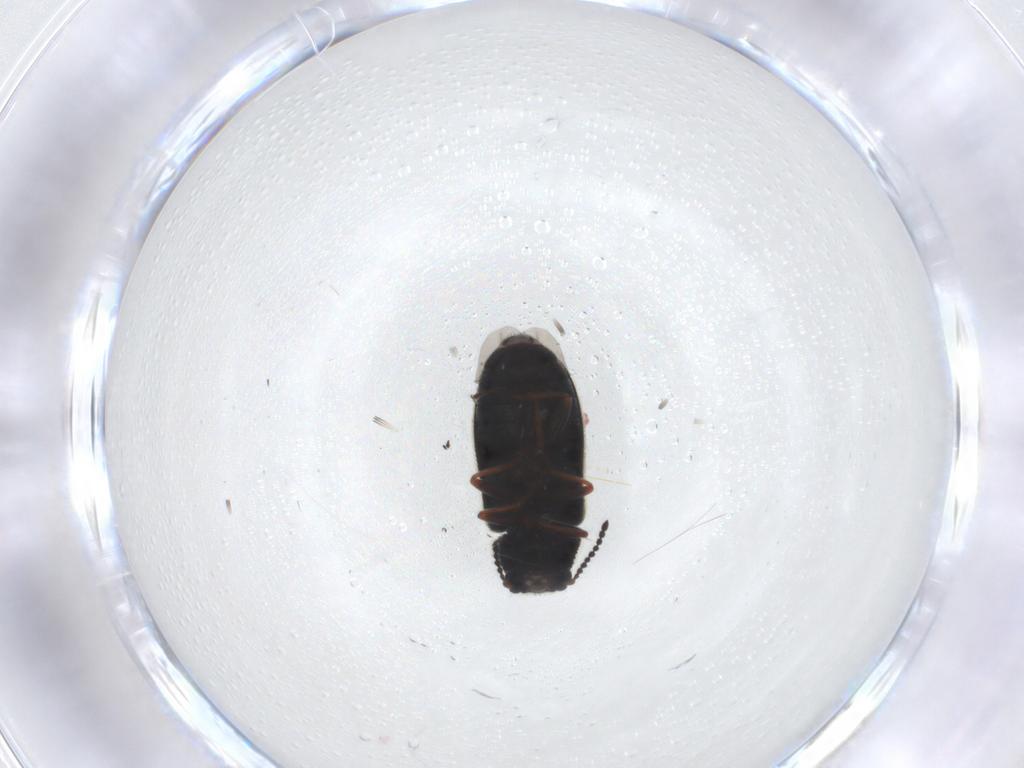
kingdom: Animalia
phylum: Arthropoda
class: Insecta
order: Coleoptera
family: Melyridae
